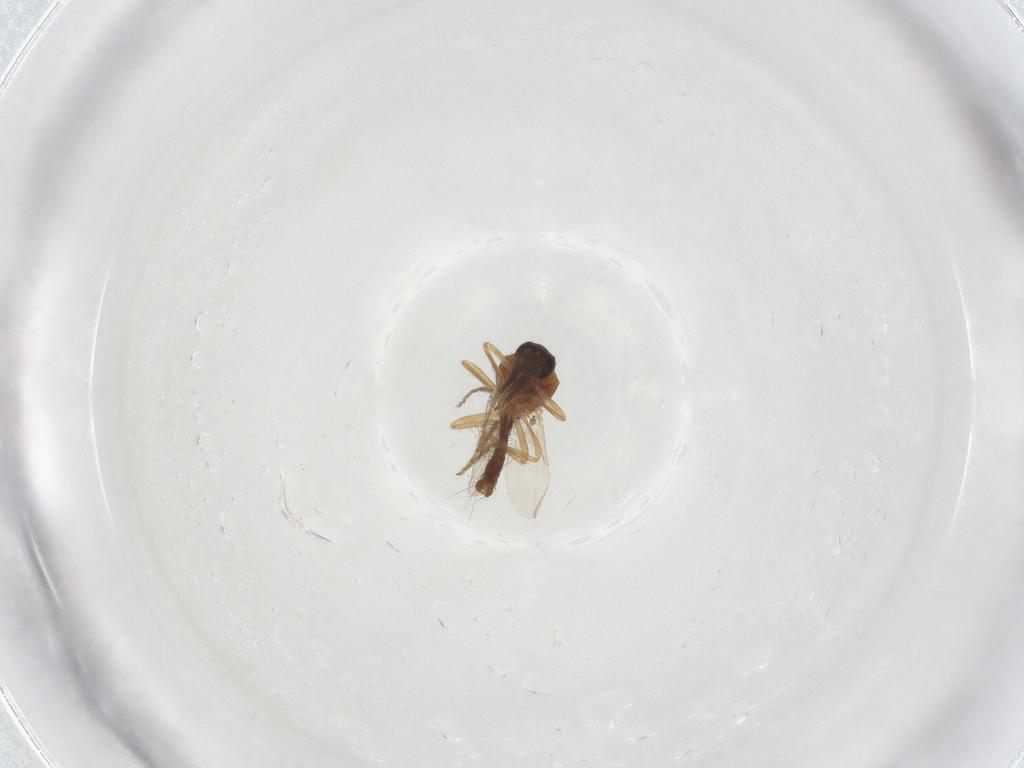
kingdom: Animalia
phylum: Arthropoda
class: Insecta
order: Diptera
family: Ceratopogonidae
